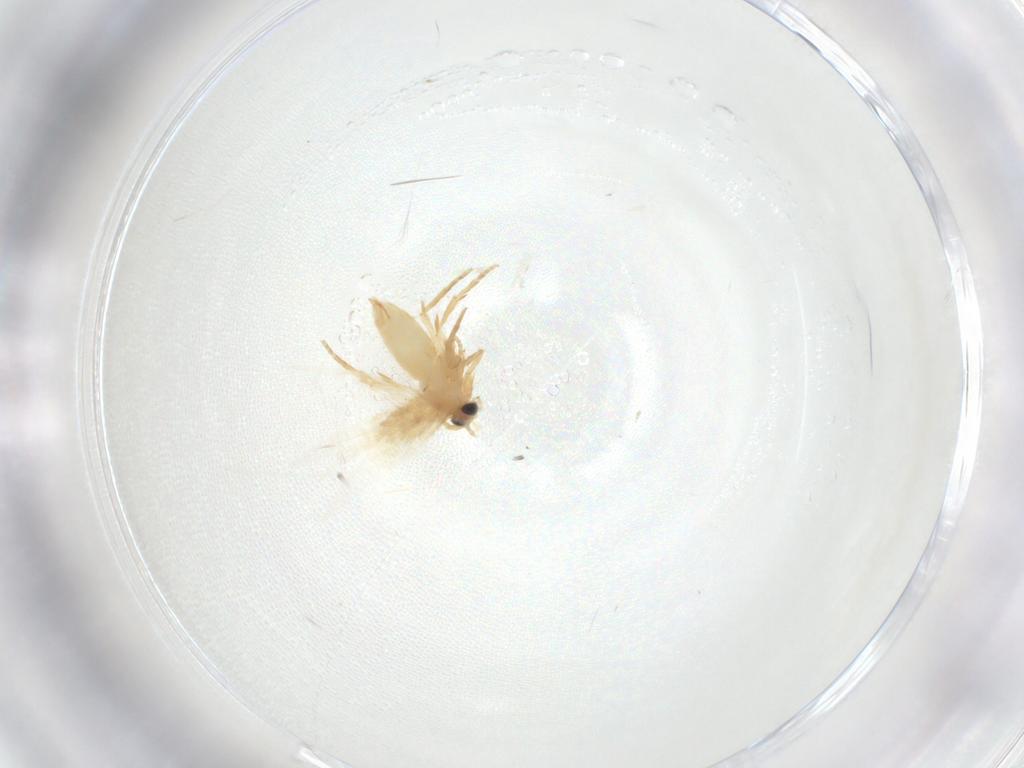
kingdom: Animalia
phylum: Arthropoda
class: Insecta
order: Lepidoptera
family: Nepticulidae
